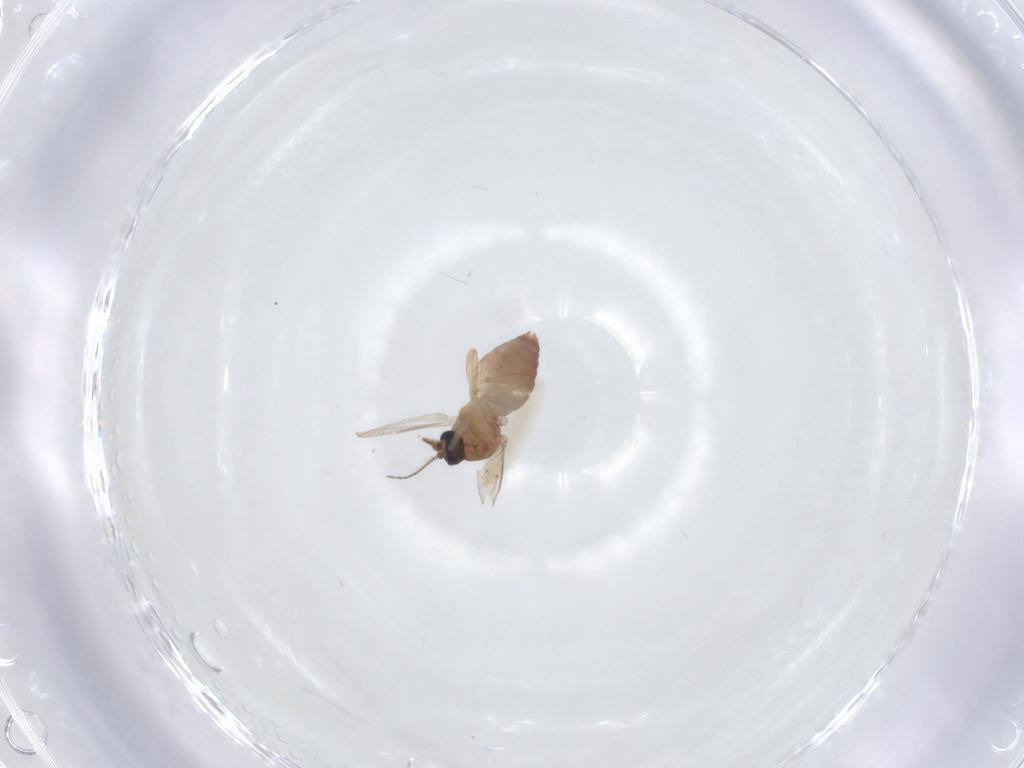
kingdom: Animalia
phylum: Arthropoda
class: Insecta
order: Diptera
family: Ceratopogonidae
